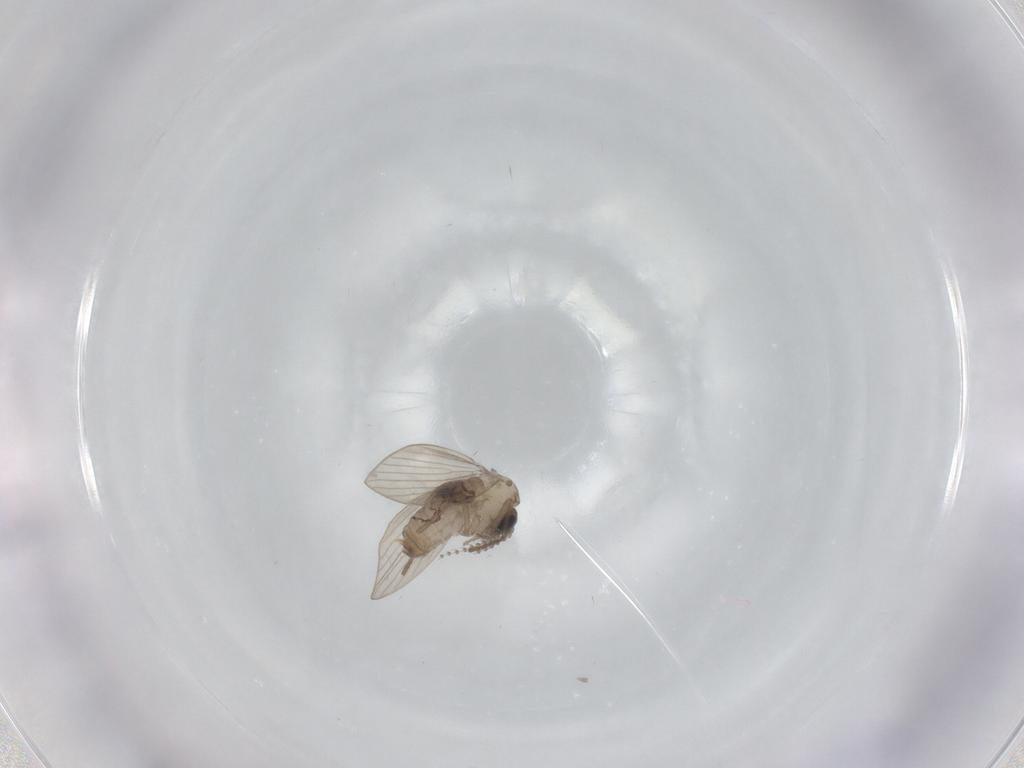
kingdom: Animalia
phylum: Arthropoda
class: Insecta
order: Diptera
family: Psychodidae
